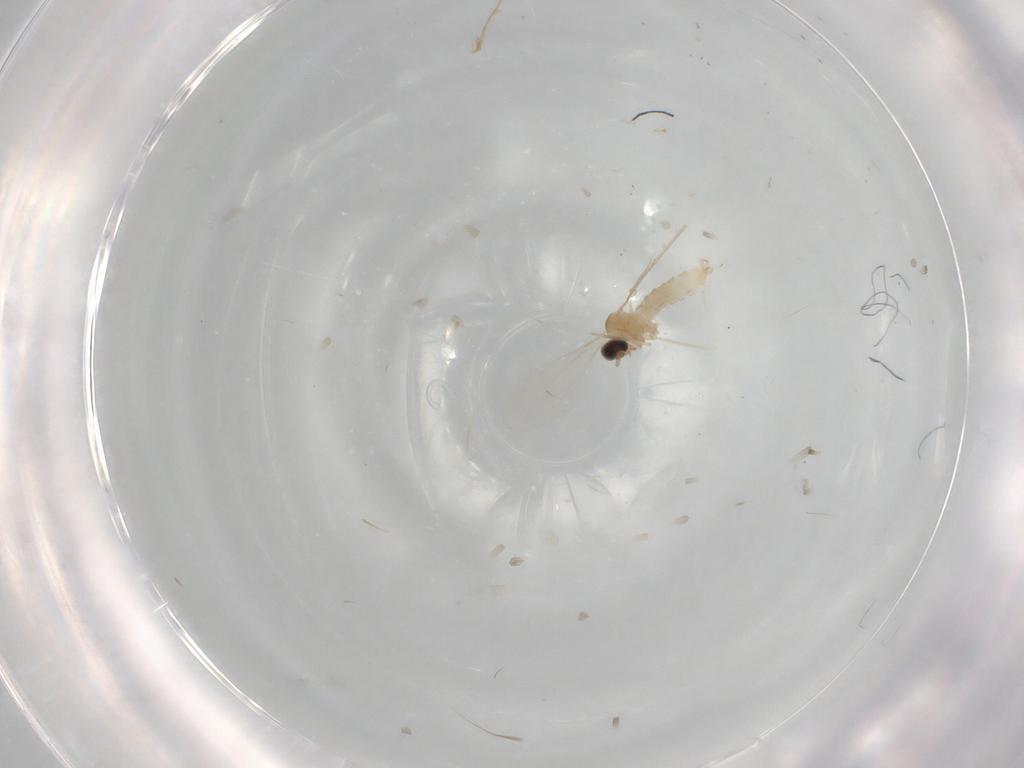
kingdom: Animalia
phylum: Arthropoda
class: Insecta
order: Diptera
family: Cecidomyiidae
